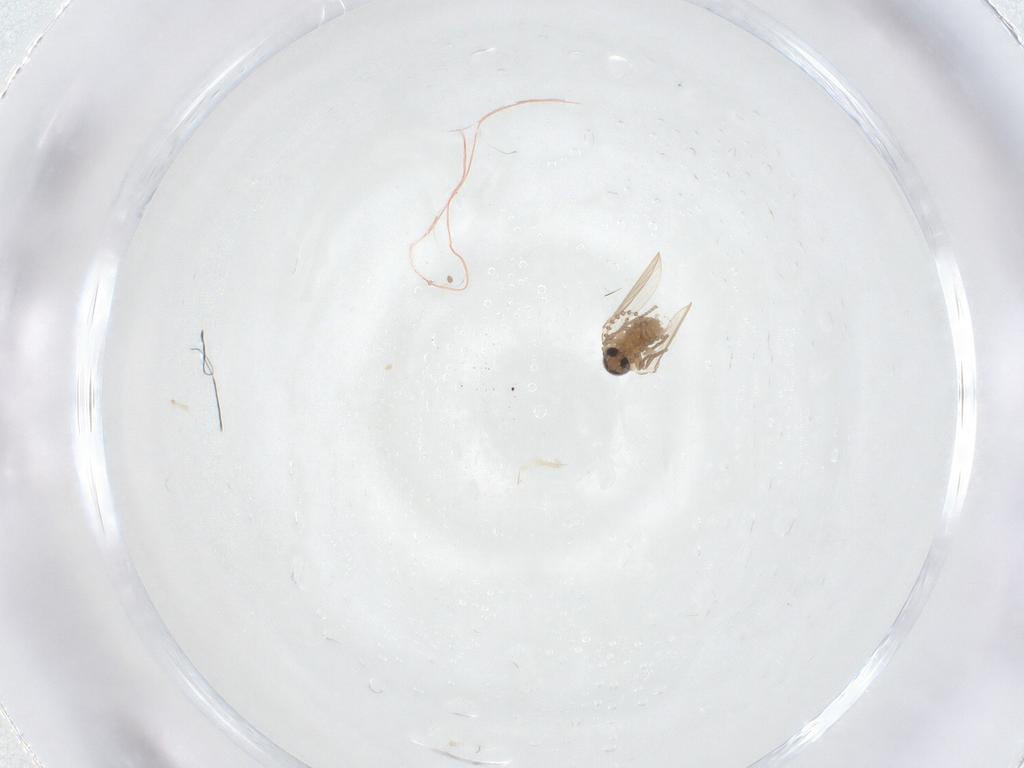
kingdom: Animalia
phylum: Arthropoda
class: Insecta
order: Diptera
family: Psychodidae
